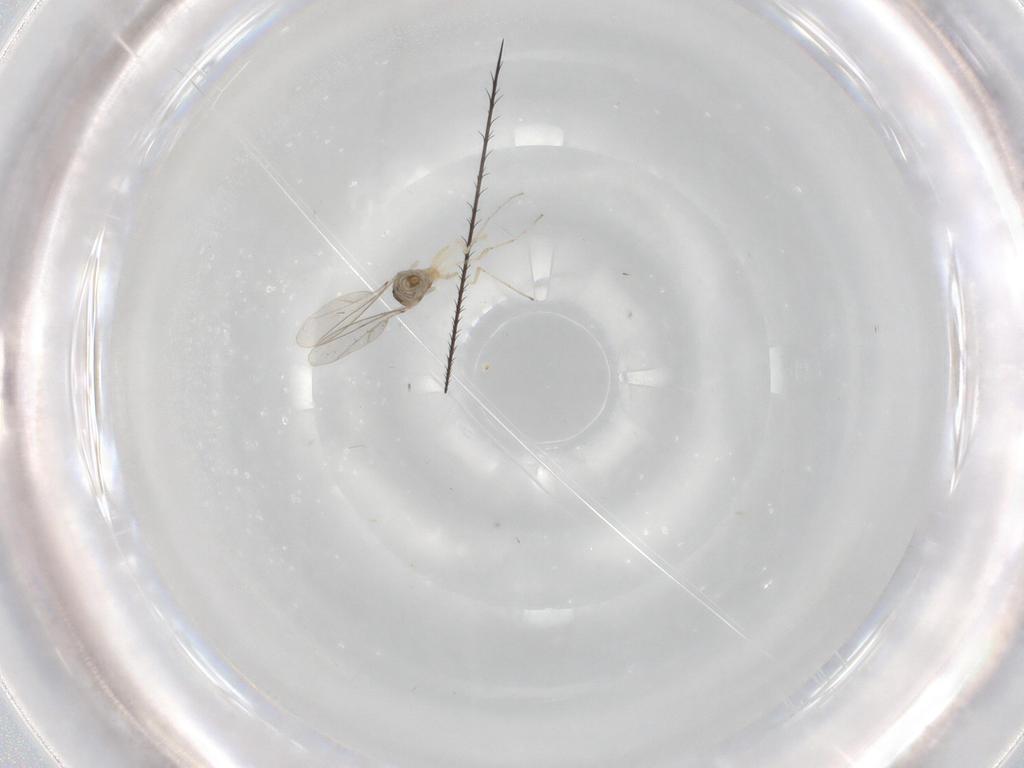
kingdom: Animalia
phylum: Arthropoda
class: Insecta
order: Diptera
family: Cecidomyiidae
